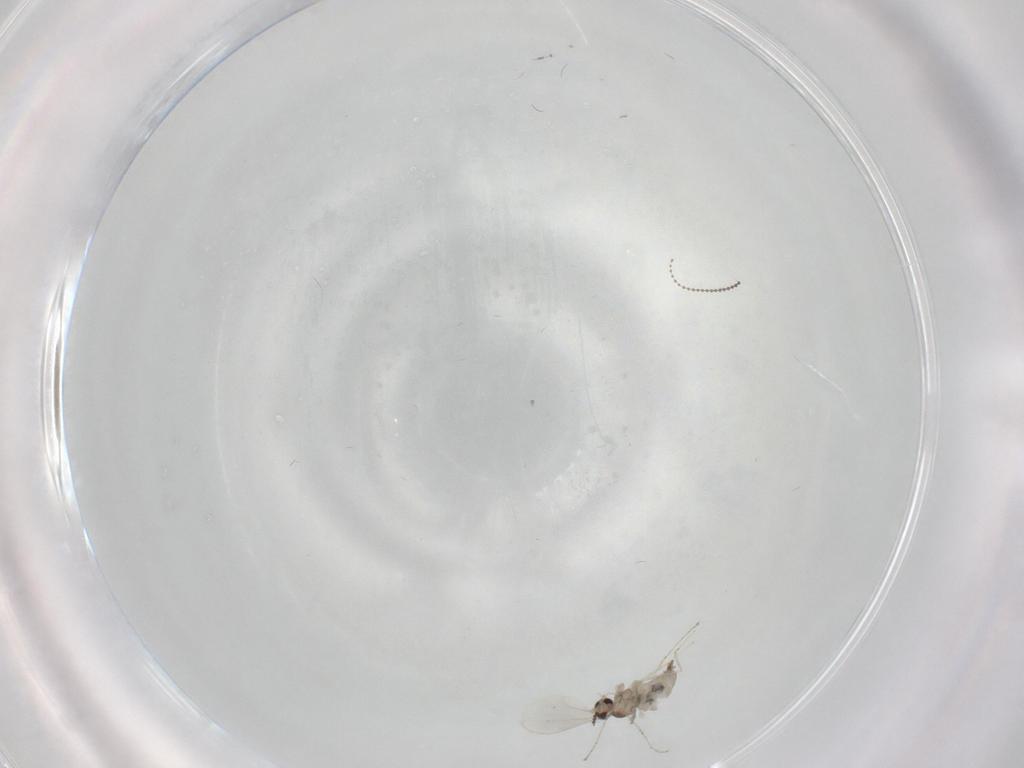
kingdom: Animalia
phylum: Arthropoda
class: Insecta
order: Diptera
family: Cecidomyiidae
